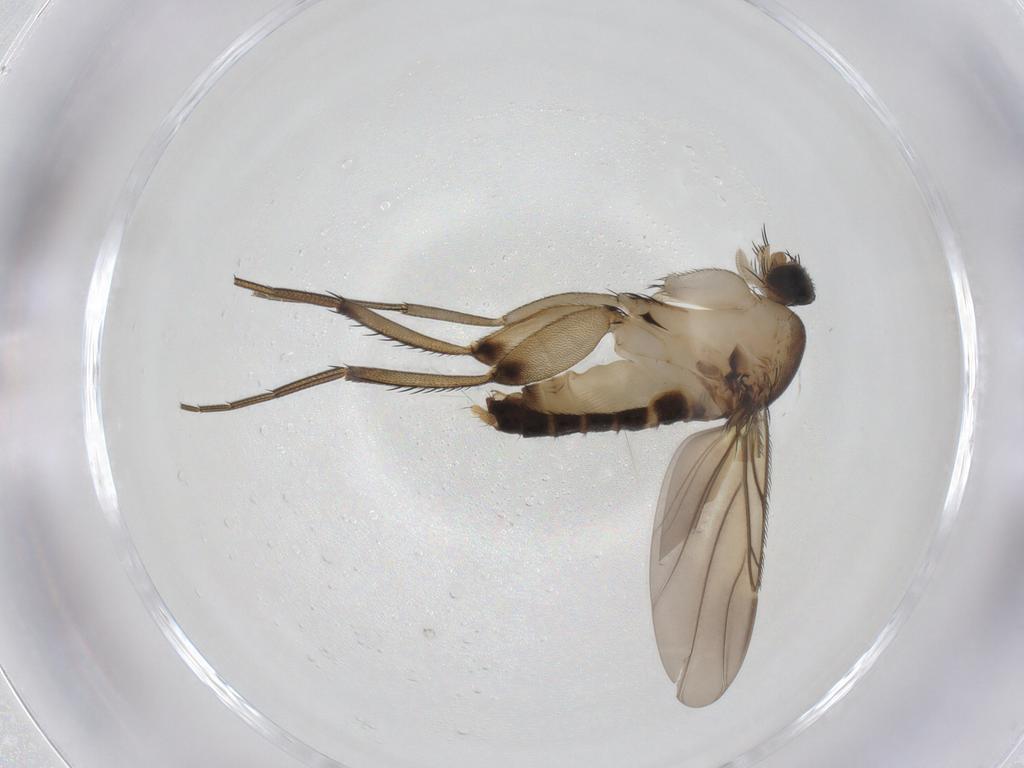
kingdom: Animalia
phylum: Arthropoda
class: Insecta
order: Diptera
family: Phoridae
